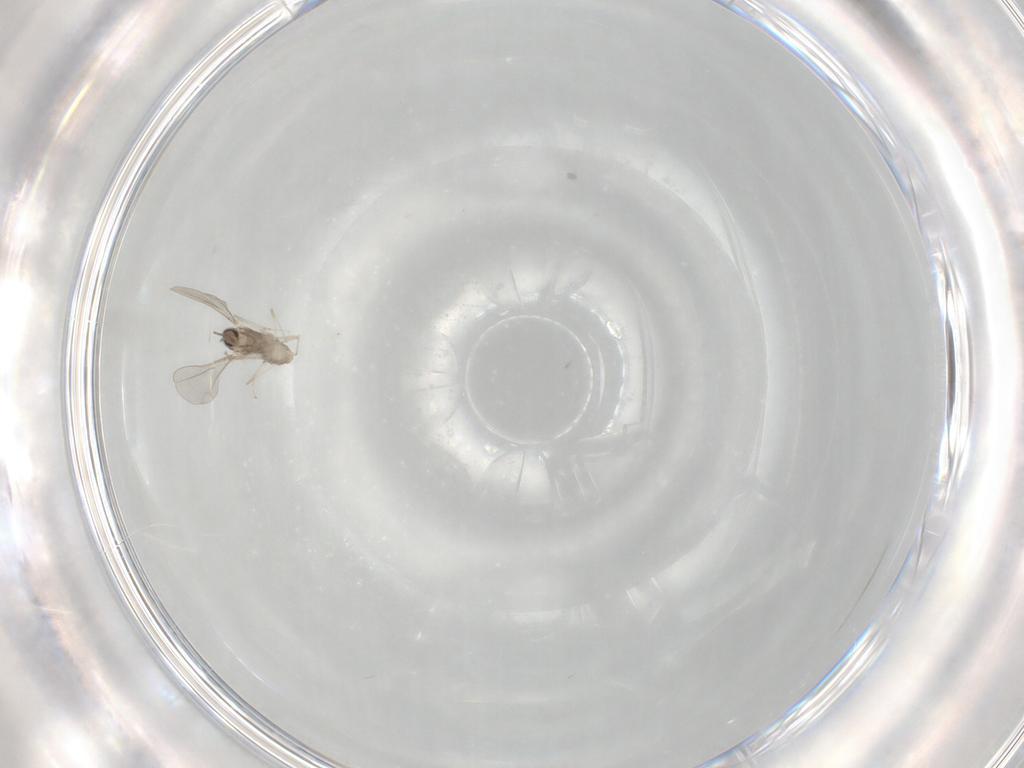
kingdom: Animalia
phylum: Arthropoda
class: Insecta
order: Diptera
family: Cecidomyiidae
